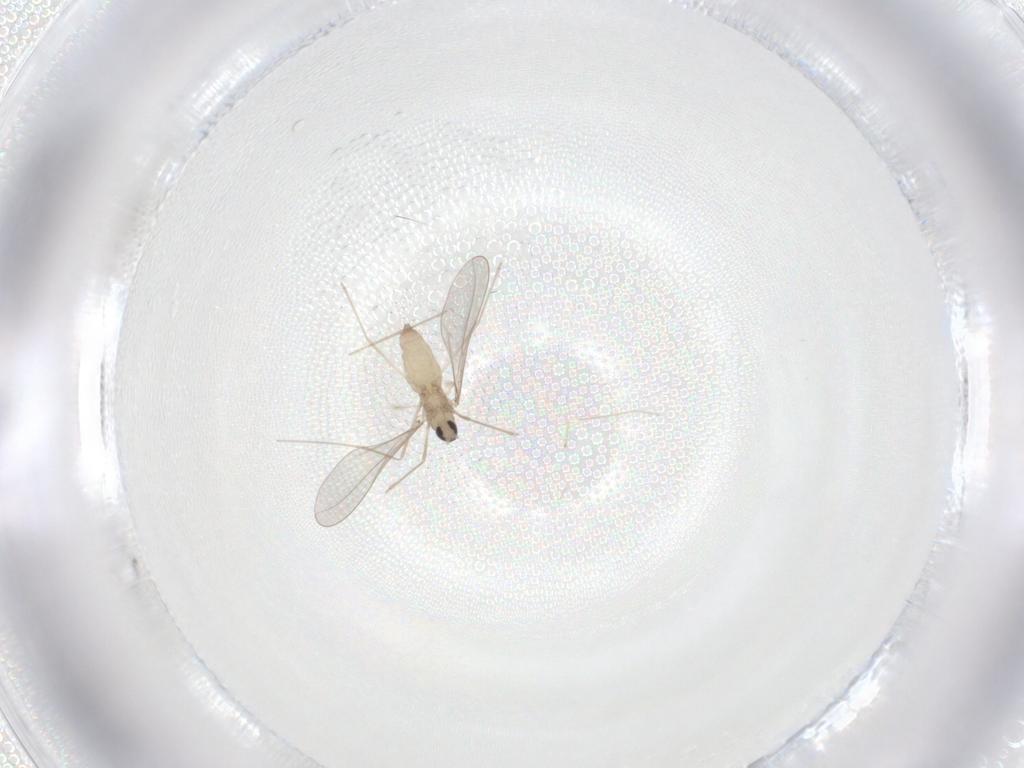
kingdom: Animalia
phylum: Arthropoda
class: Insecta
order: Diptera
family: Cecidomyiidae
